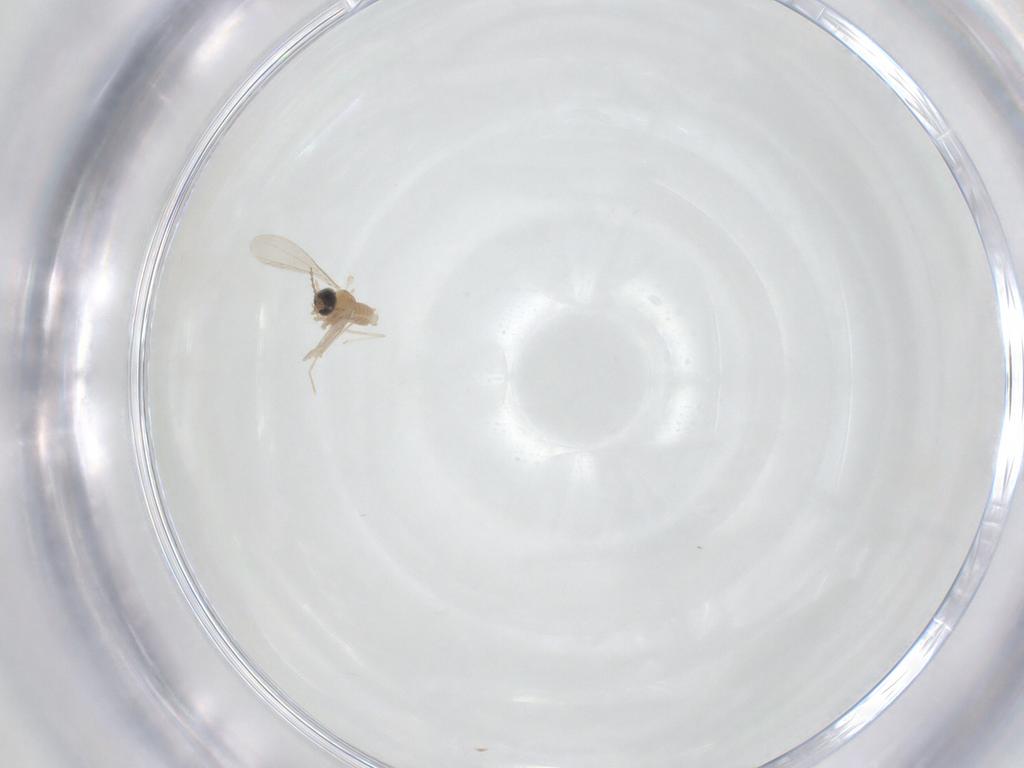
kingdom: Animalia
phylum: Arthropoda
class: Insecta
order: Diptera
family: Cecidomyiidae
